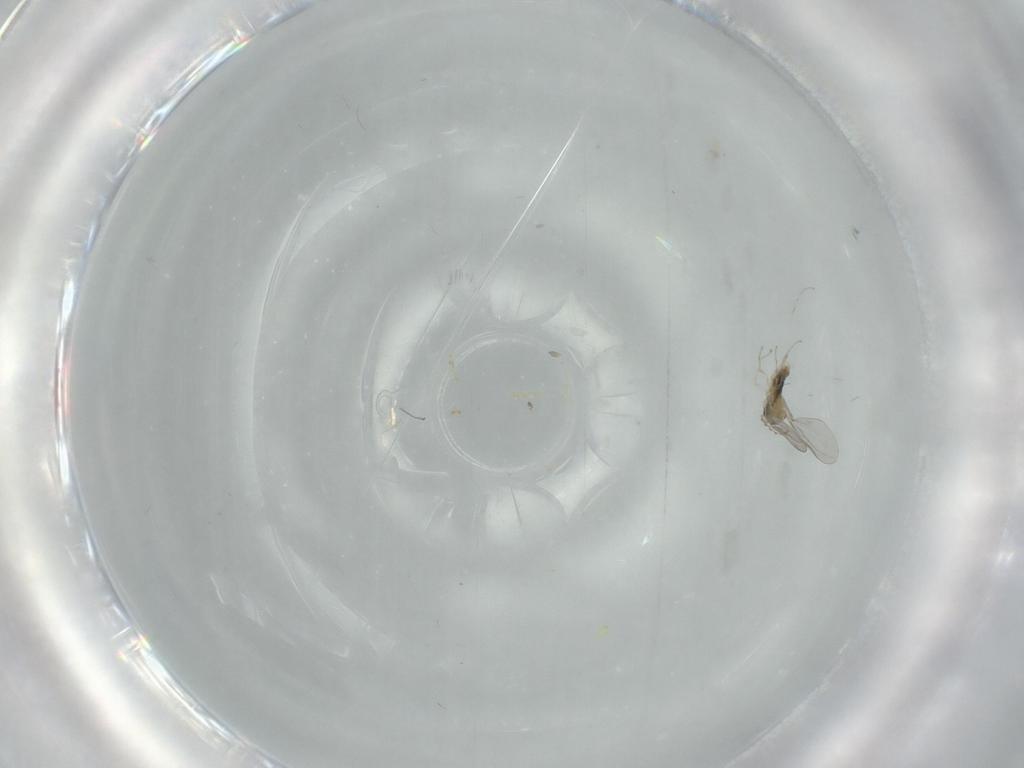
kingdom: Animalia
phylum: Arthropoda
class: Insecta
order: Diptera
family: Cecidomyiidae
